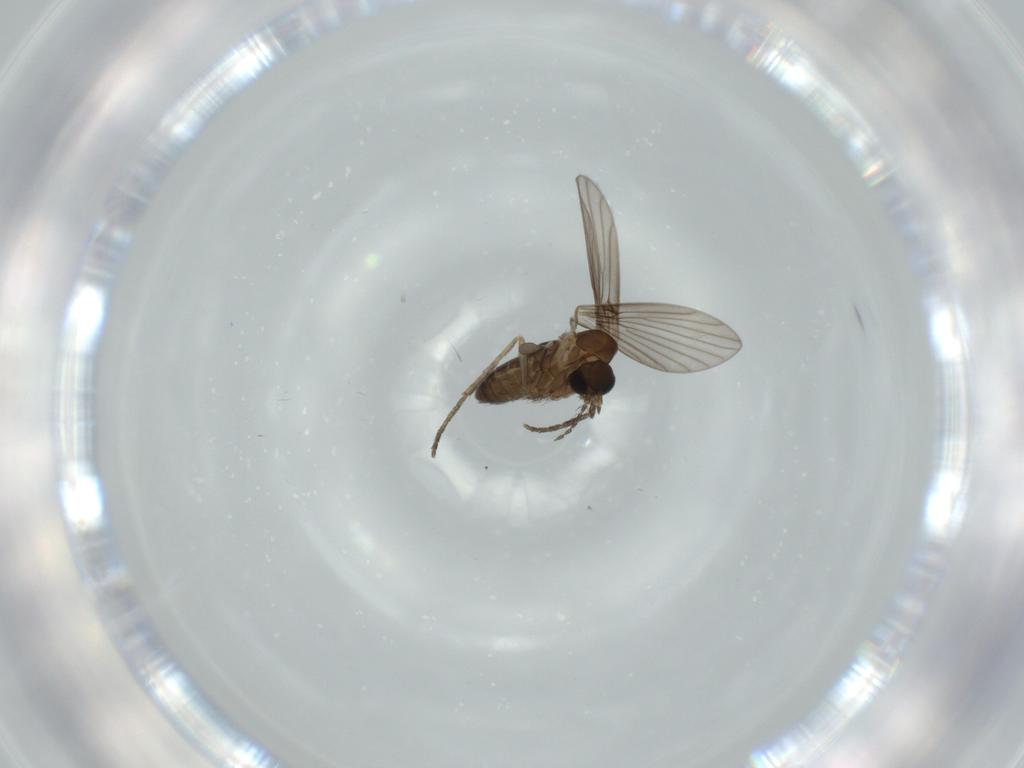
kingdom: Animalia
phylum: Arthropoda
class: Insecta
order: Diptera
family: Psychodidae
